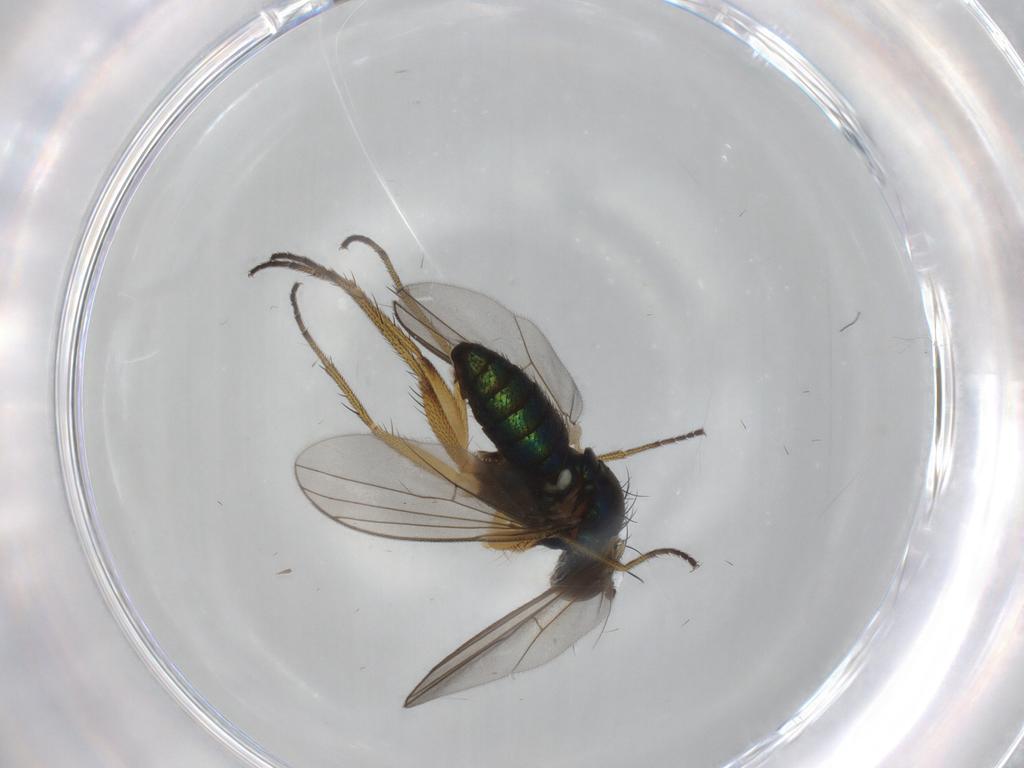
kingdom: Animalia
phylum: Arthropoda
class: Insecta
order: Diptera
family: Dolichopodidae
